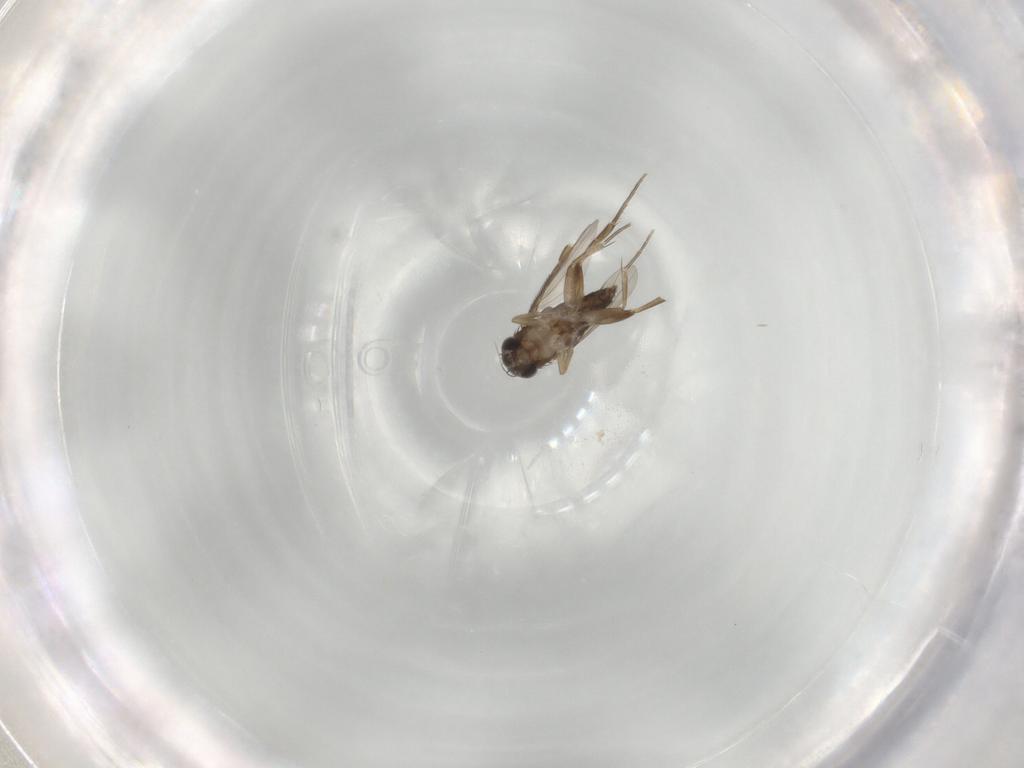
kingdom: Animalia
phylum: Arthropoda
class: Insecta
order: Diptera
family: Phoridae
